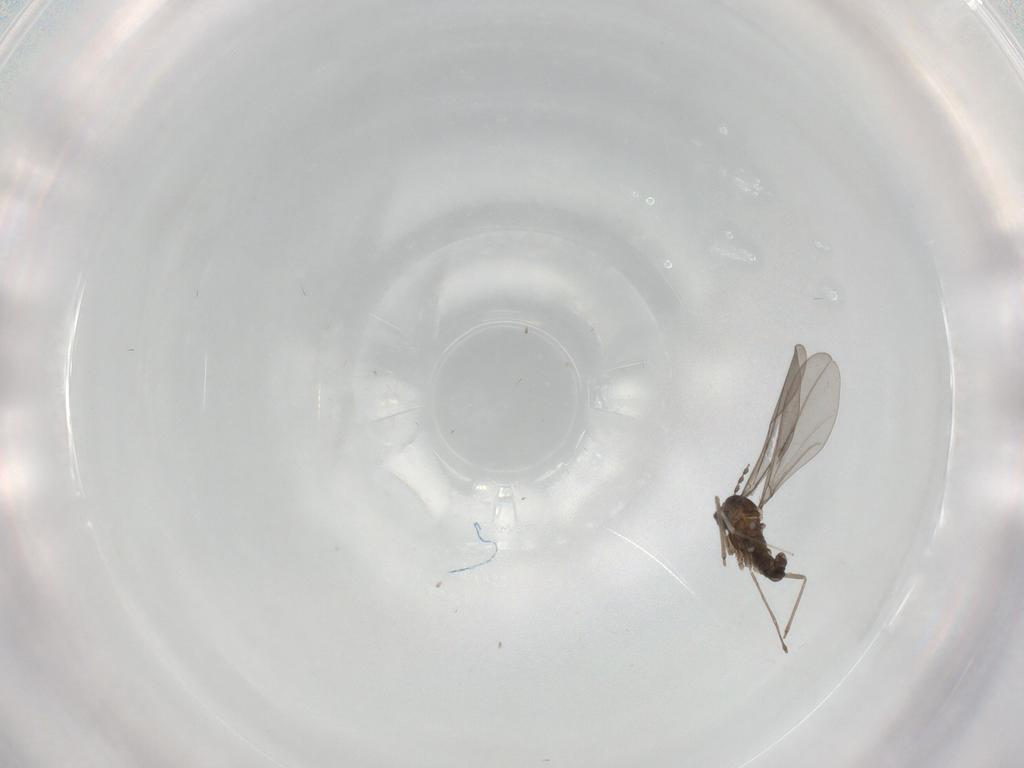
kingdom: Animalia
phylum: Arthropoda
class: Insecta
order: Diptera
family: Cecidomyiidae
